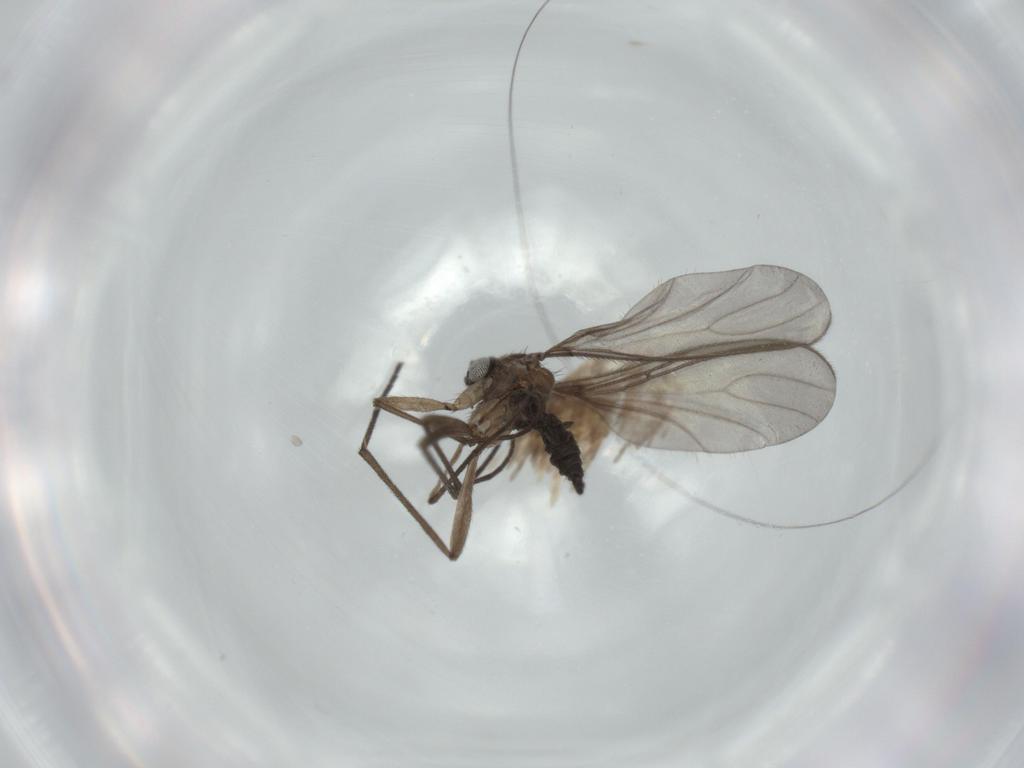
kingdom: Animalia
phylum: Arthropoda
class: Insecta
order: Diptera
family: Sciaridae
